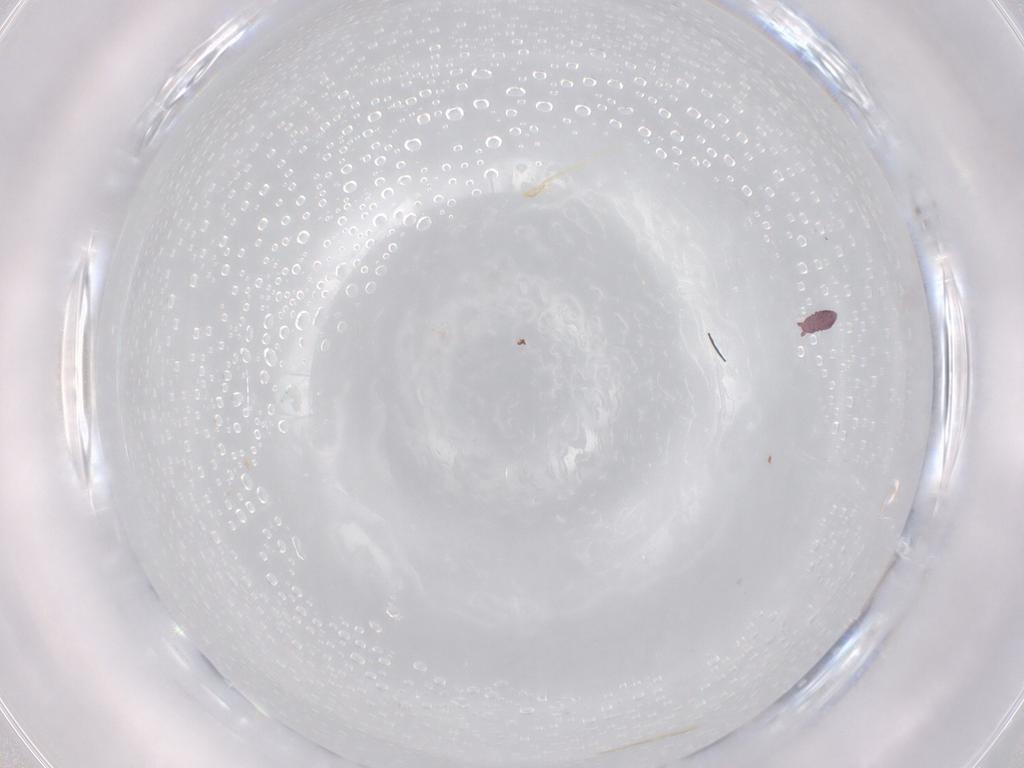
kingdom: Animalia
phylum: Arthropoda
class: Collembola
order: Poduromorpha
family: Hypogastruridae
